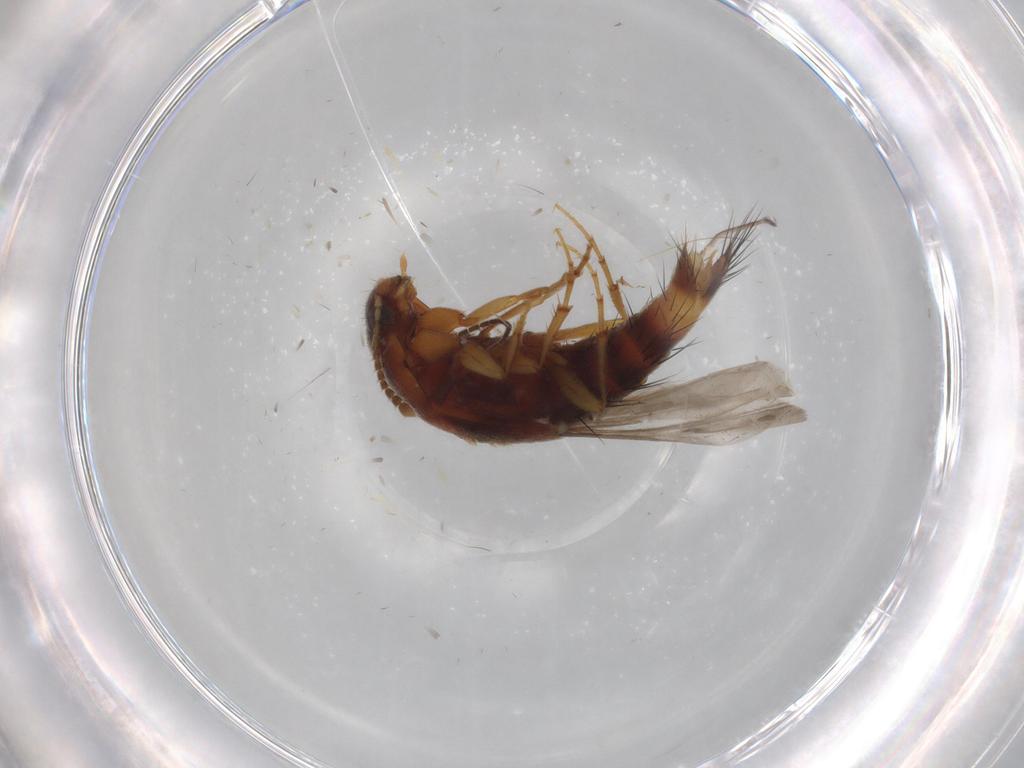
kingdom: Animalia
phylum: Arthropoda
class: Insecta
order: Coleoptera
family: Staphylinidae
